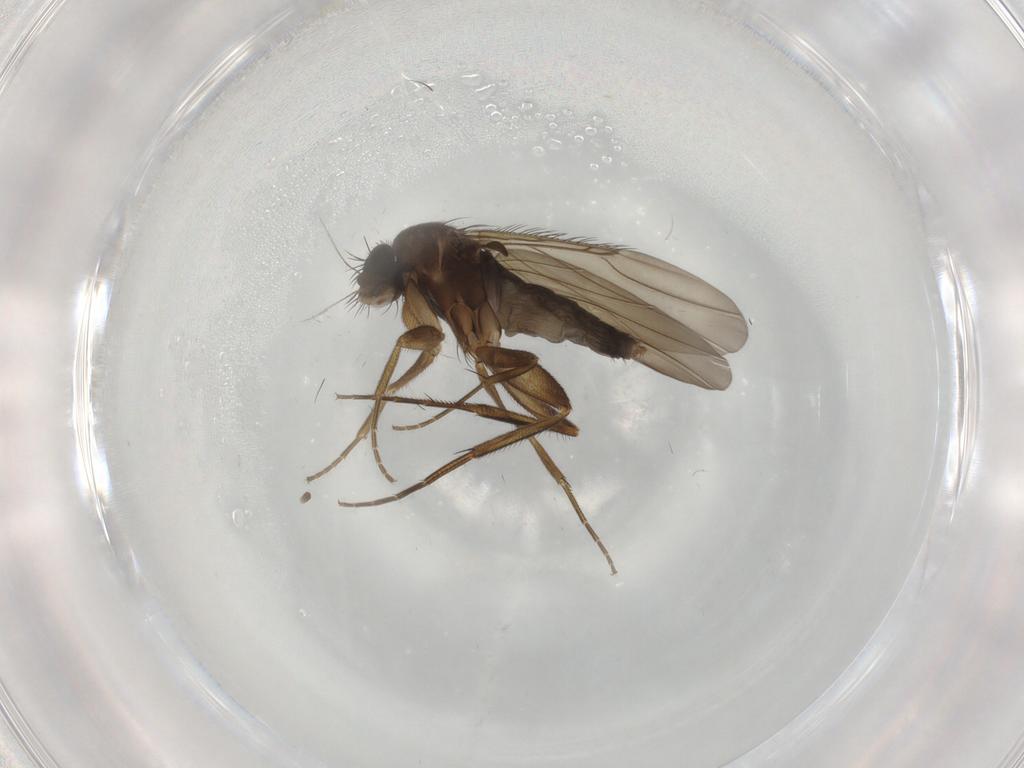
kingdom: Animalia
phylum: Arthropoda
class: Insecta
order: Diptera
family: Phoridae
